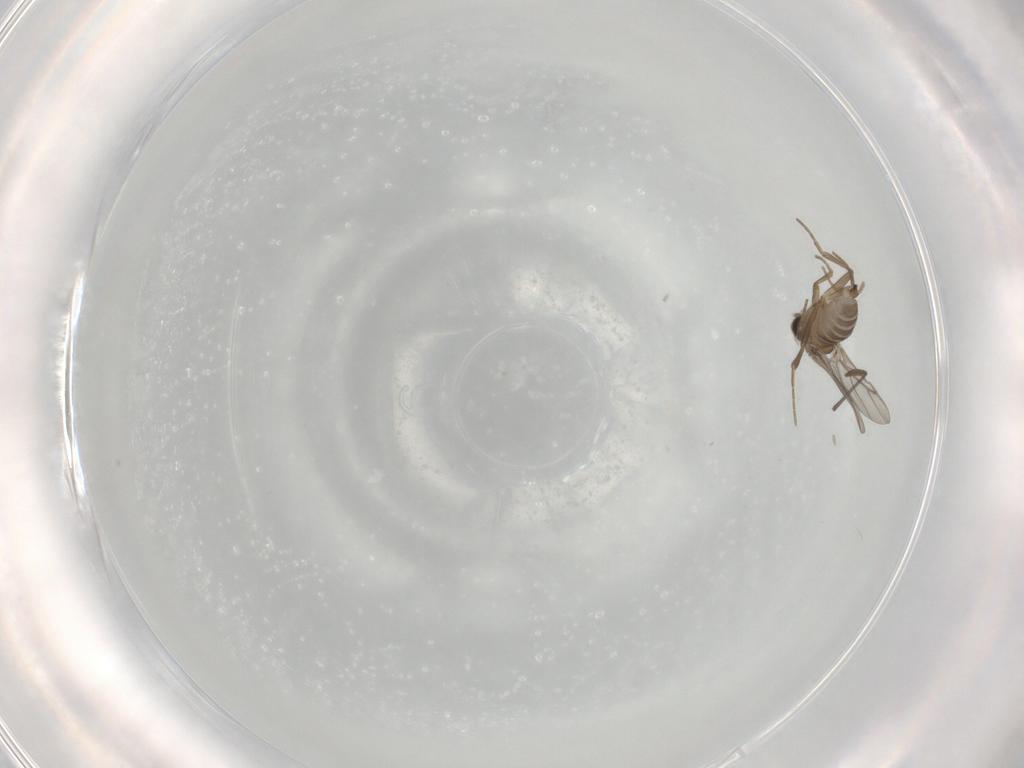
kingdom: Animalia
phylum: Arthropoda
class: Insecta
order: Diptera
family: Sciaridae
